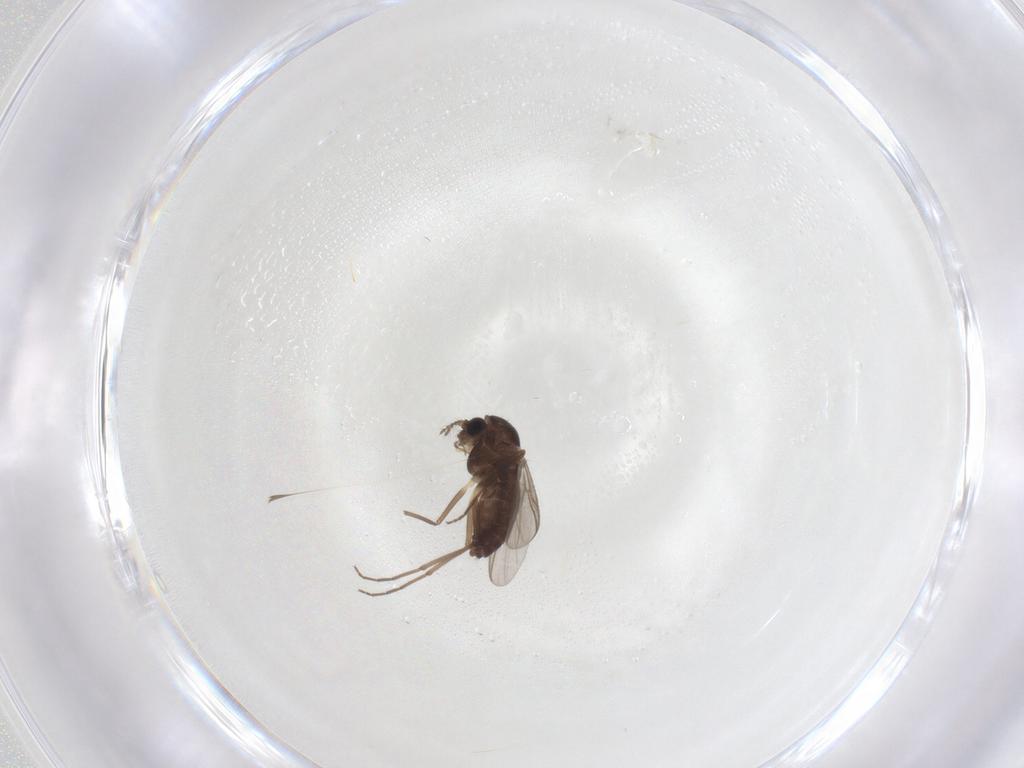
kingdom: Animalia
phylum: Arthropoda
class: Insecta
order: Diptera
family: Chironomidae
